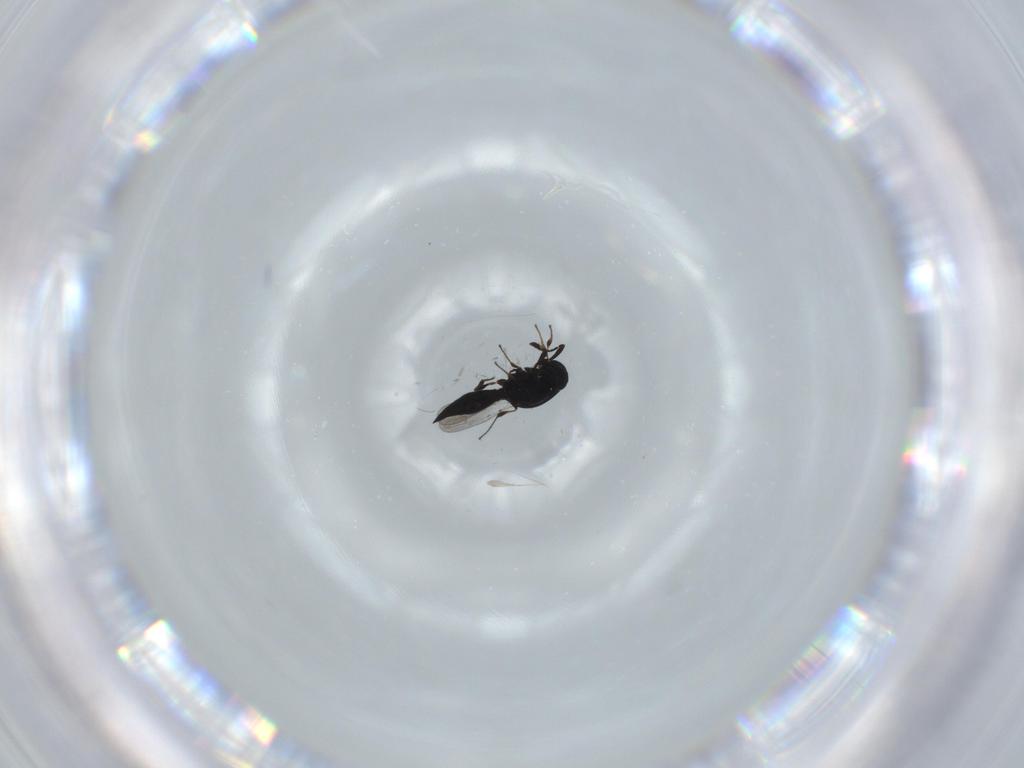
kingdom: Animalia
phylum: Arthropoda
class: Insecta
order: Hymenoptera
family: Platygastridae
